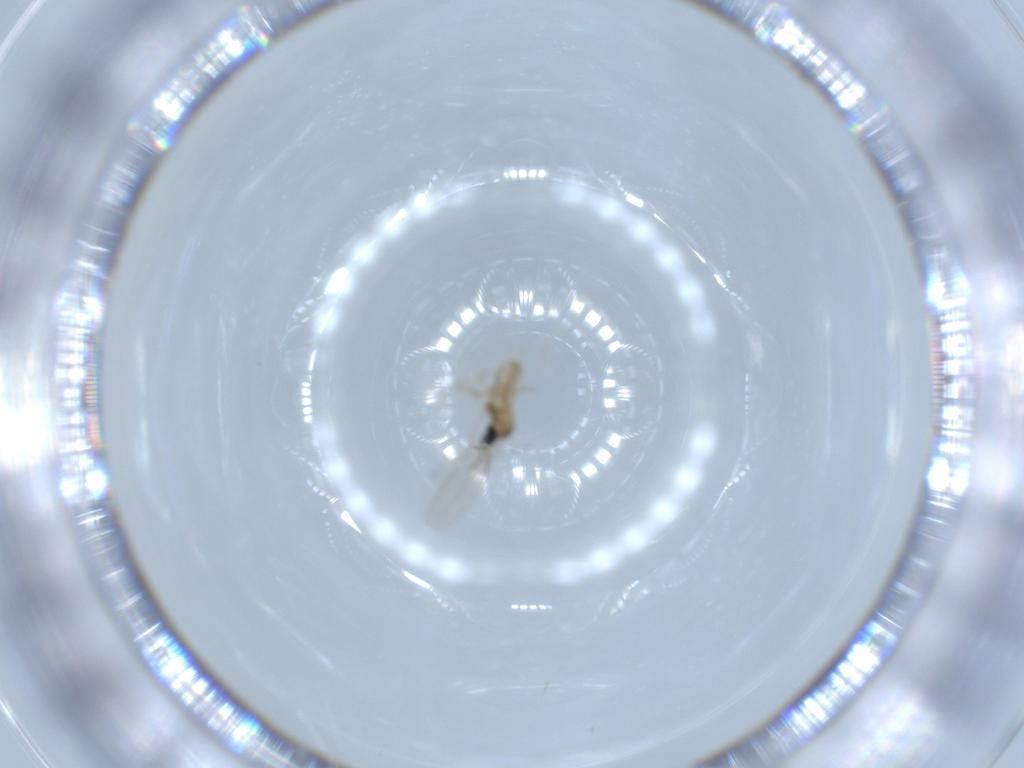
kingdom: Animalia
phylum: Arthropoda
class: Insecta
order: Diptera
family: Cecidomyiidae
